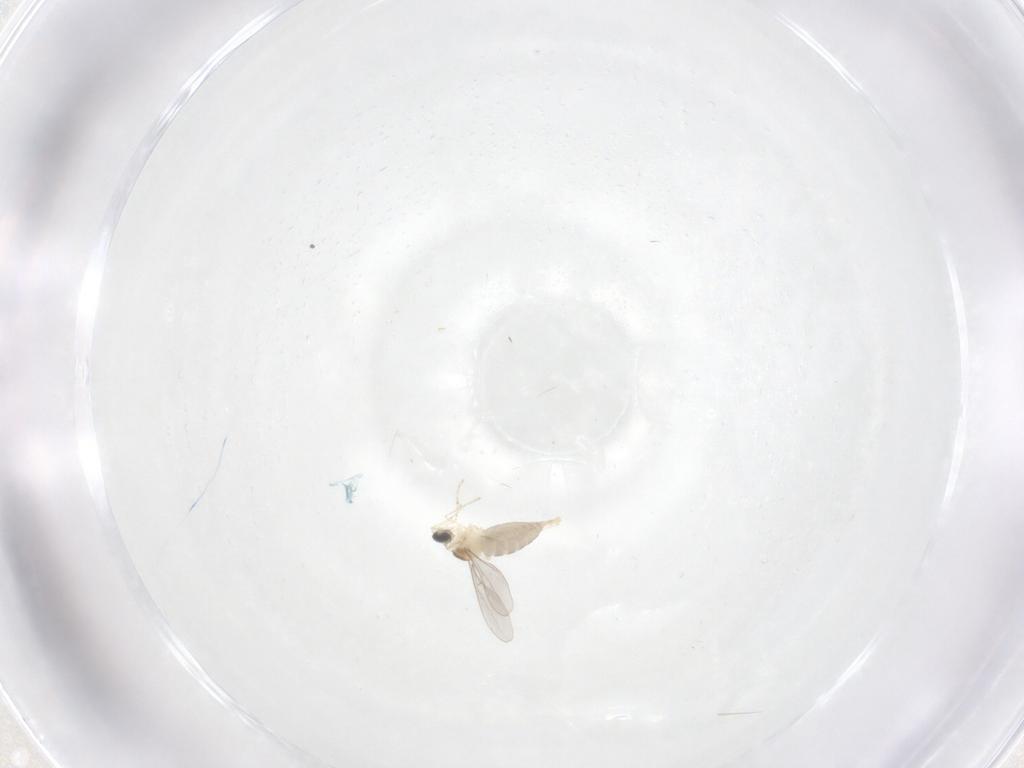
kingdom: Animalia
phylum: Arthropoda
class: Insecta
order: Diptera
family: Cecidomyiidae
